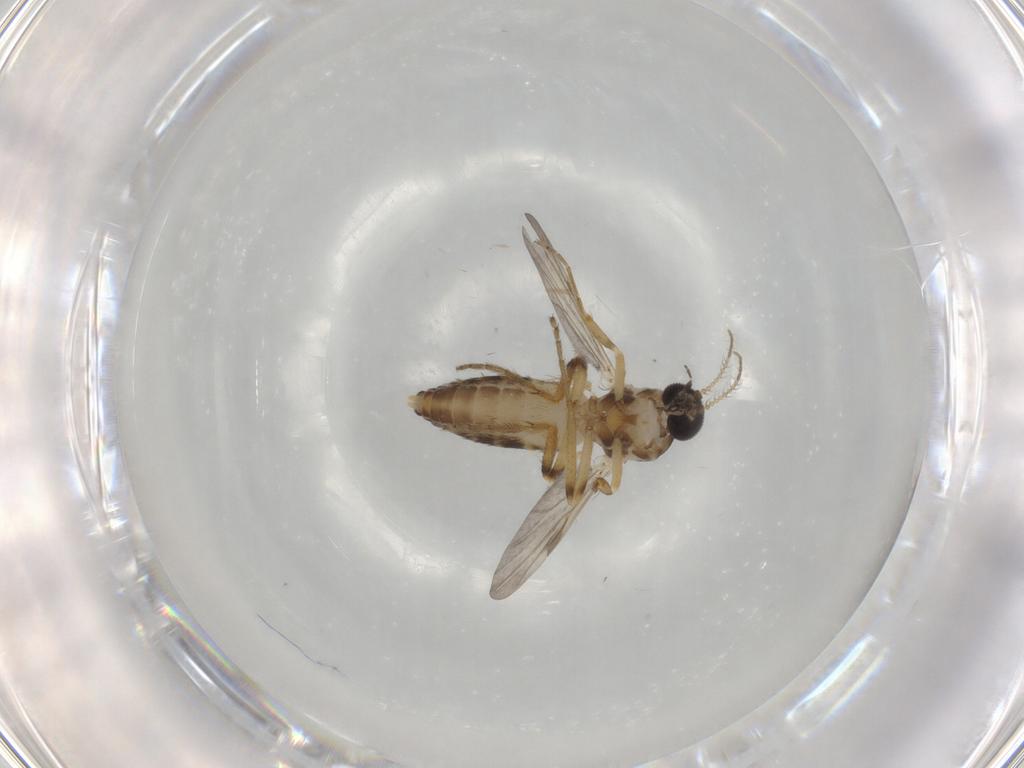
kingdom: Animalia
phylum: Arthropoda
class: Insecta
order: Diptera
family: Ceratopogonidae
